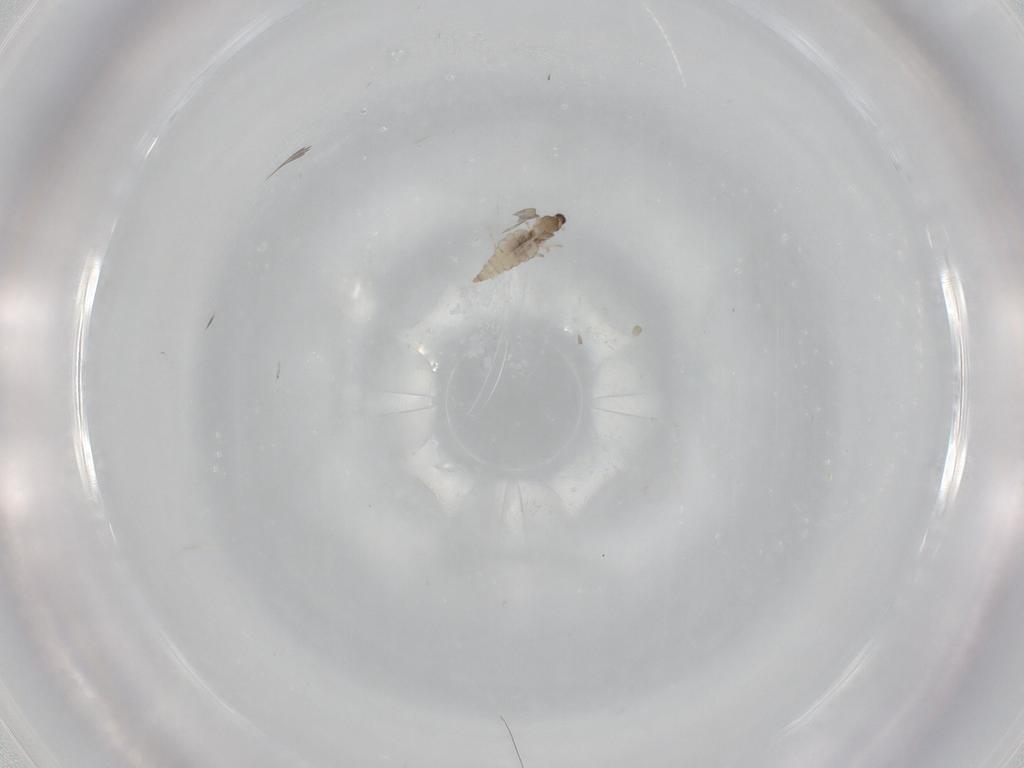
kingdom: Animalia
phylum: Arthropoda
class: Insecta
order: Diptera
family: Cecidomyiidae
